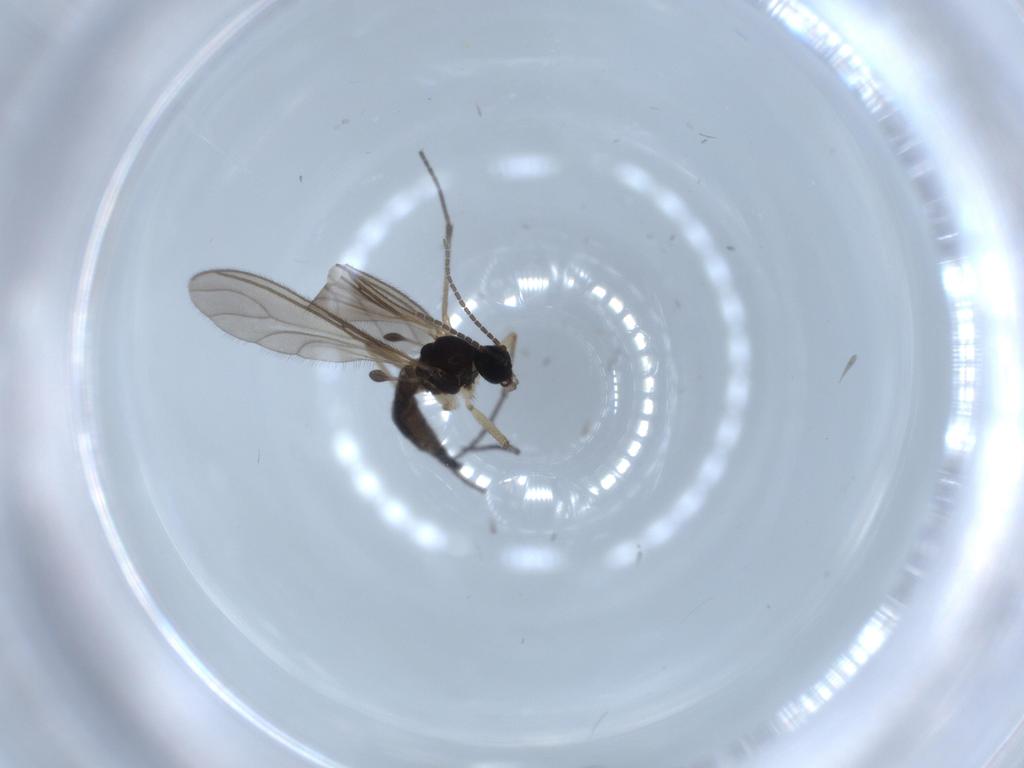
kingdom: Animalia
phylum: Arthropoda
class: Insecta
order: Diptera
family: Sciaridae
